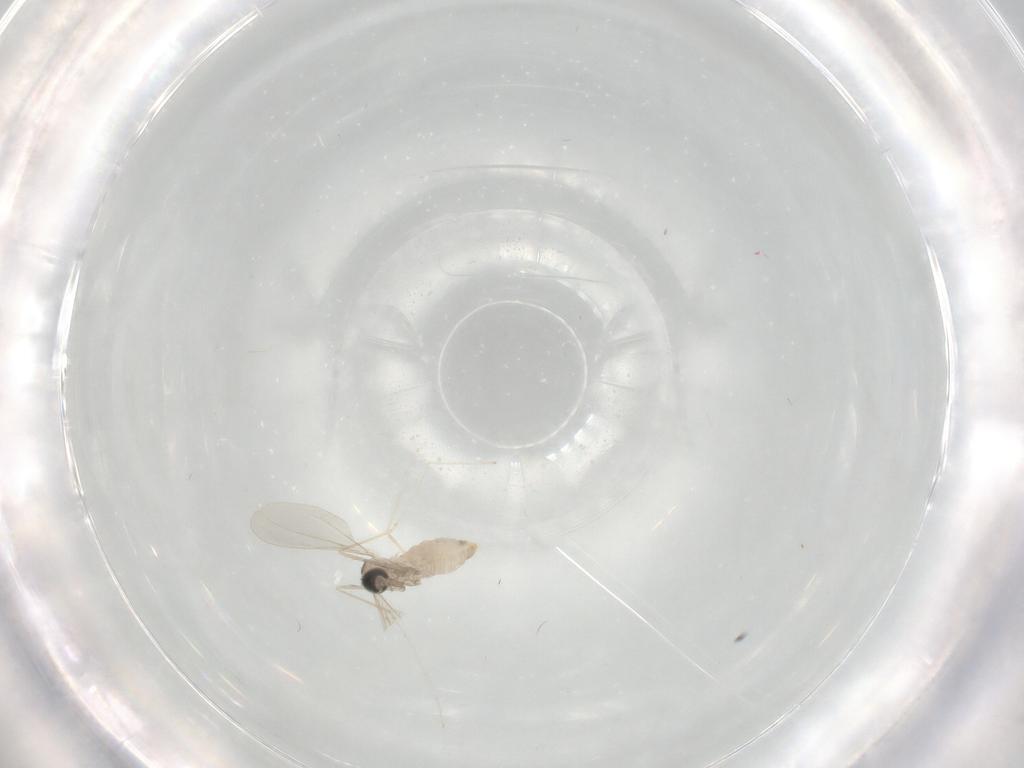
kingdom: Animalia
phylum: Arthropoda
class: Insecta
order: Diptera
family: Cecidomyiidae
